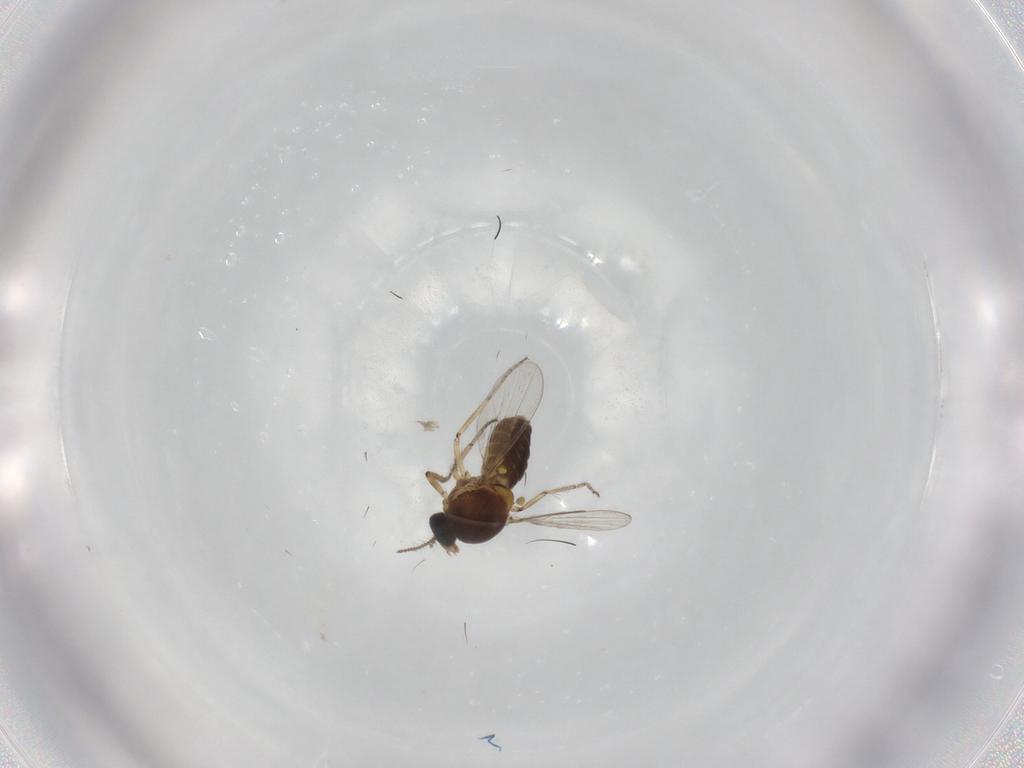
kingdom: Animalia
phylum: Arthropoda
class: Insecta
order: Diptera
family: Ceratopogonidae
